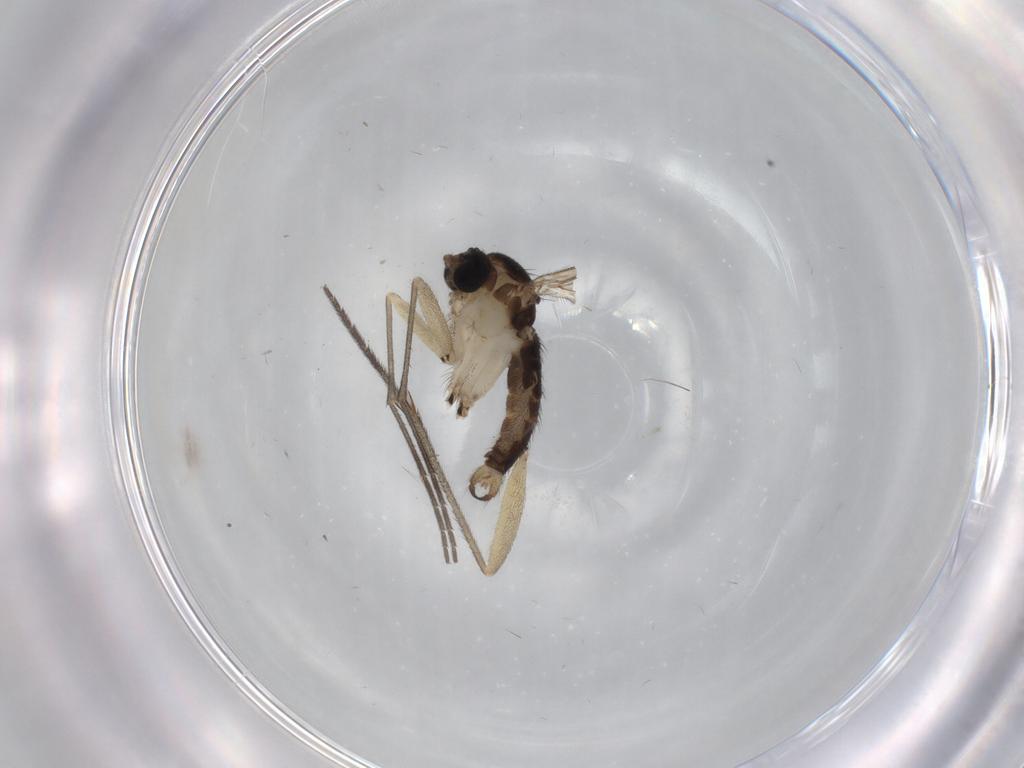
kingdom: Animalia
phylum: Arthropoda
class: Insecta
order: Diptera
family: Sciaridae
